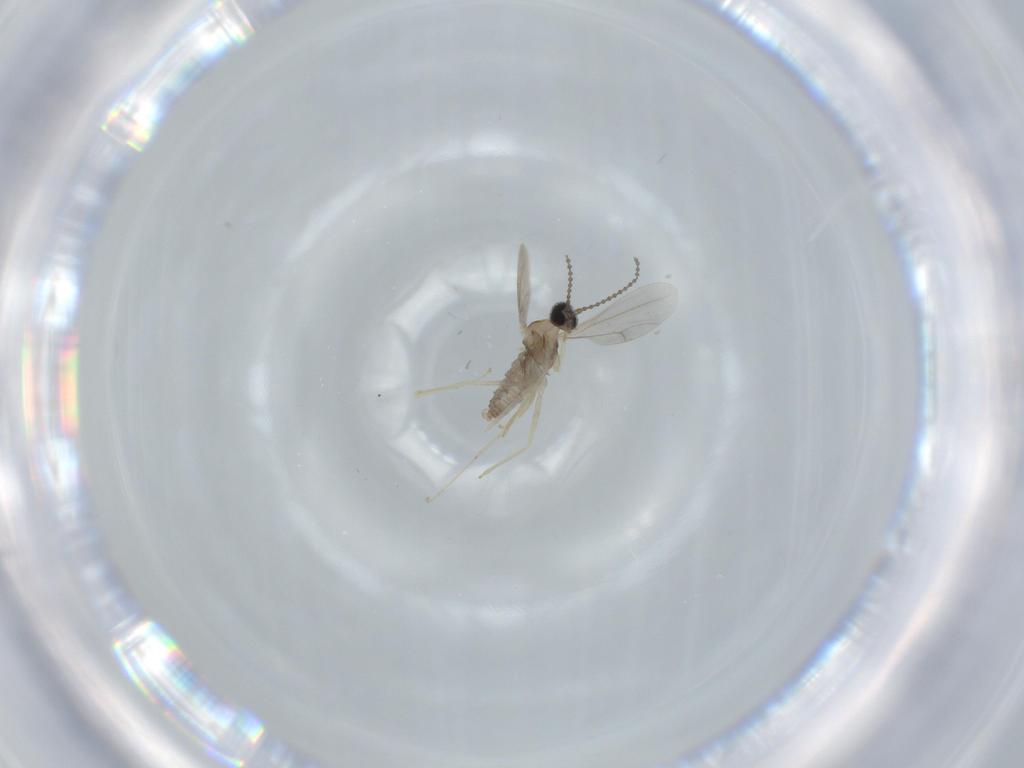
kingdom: Animalia
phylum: Arthropoda
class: Insecta
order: Diptera
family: Cecidomyiidae
